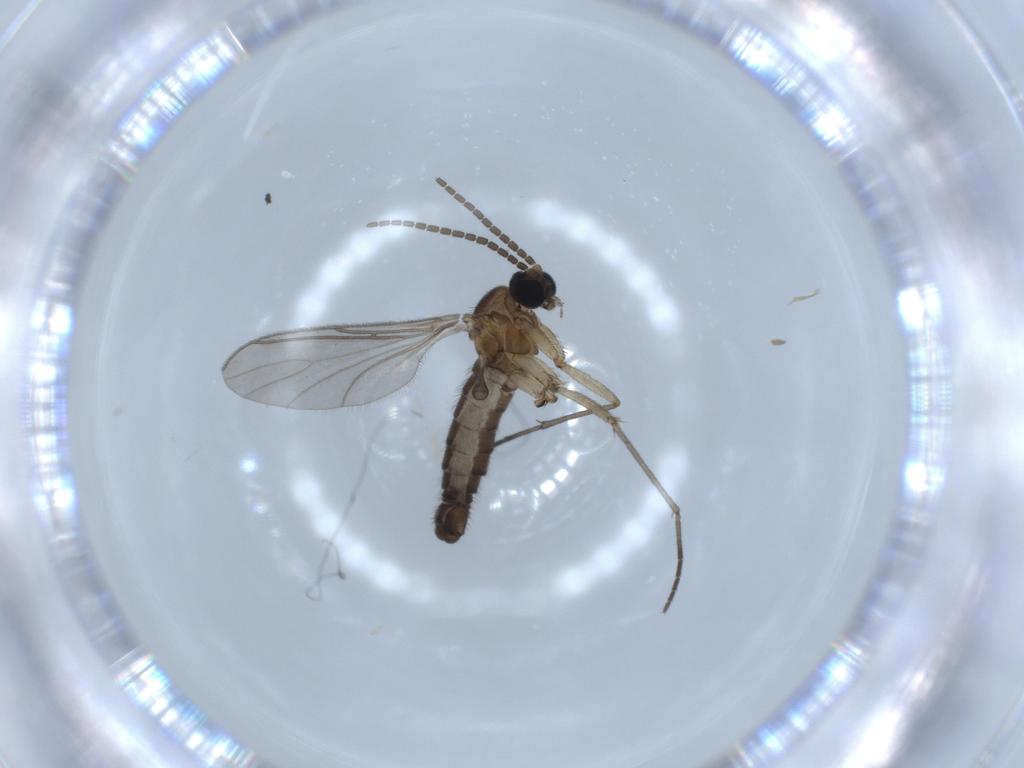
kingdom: Animalia
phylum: Arthropoda
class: Insecta
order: Diptera
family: Sciaridae
